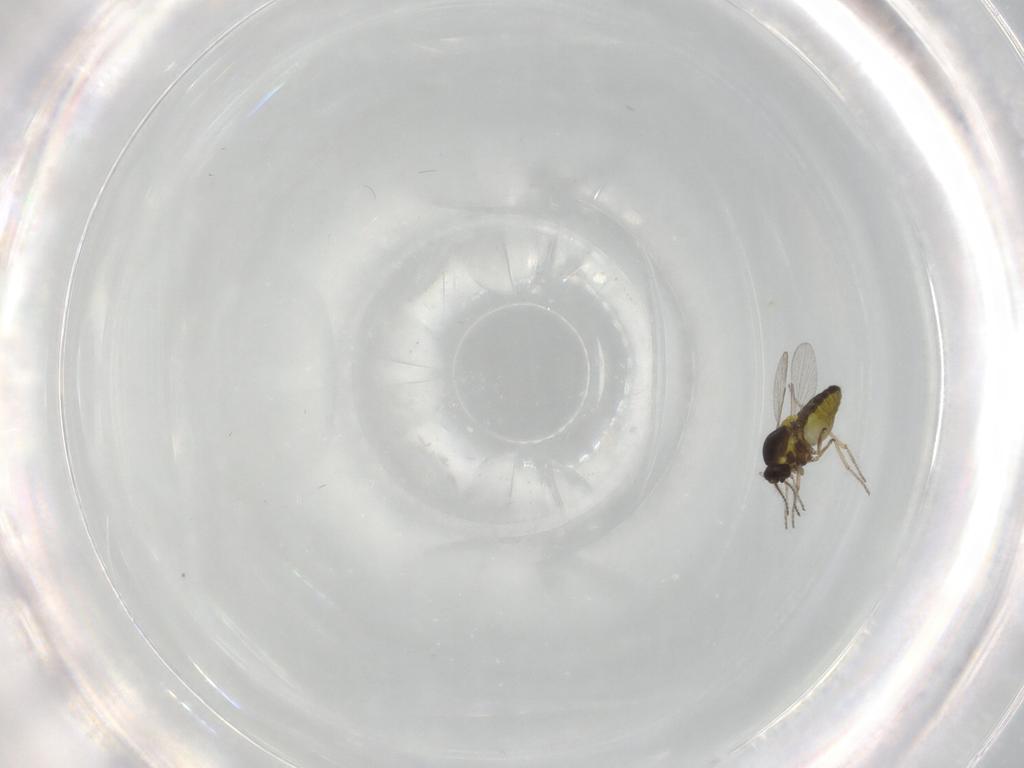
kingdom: Animalia
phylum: Arthropoda
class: Insecta
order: Diptera
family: Ceratopogonidae
